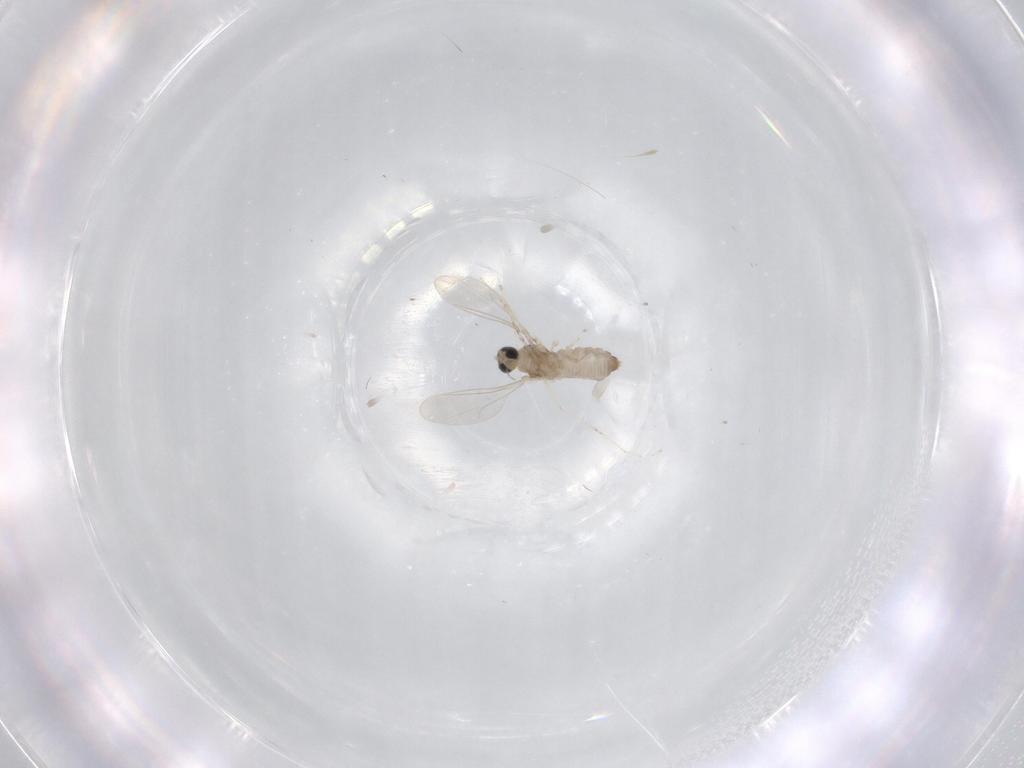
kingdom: Animalia
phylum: Arthropoda
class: Insecta
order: Diptera
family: Cecidomyiidae
